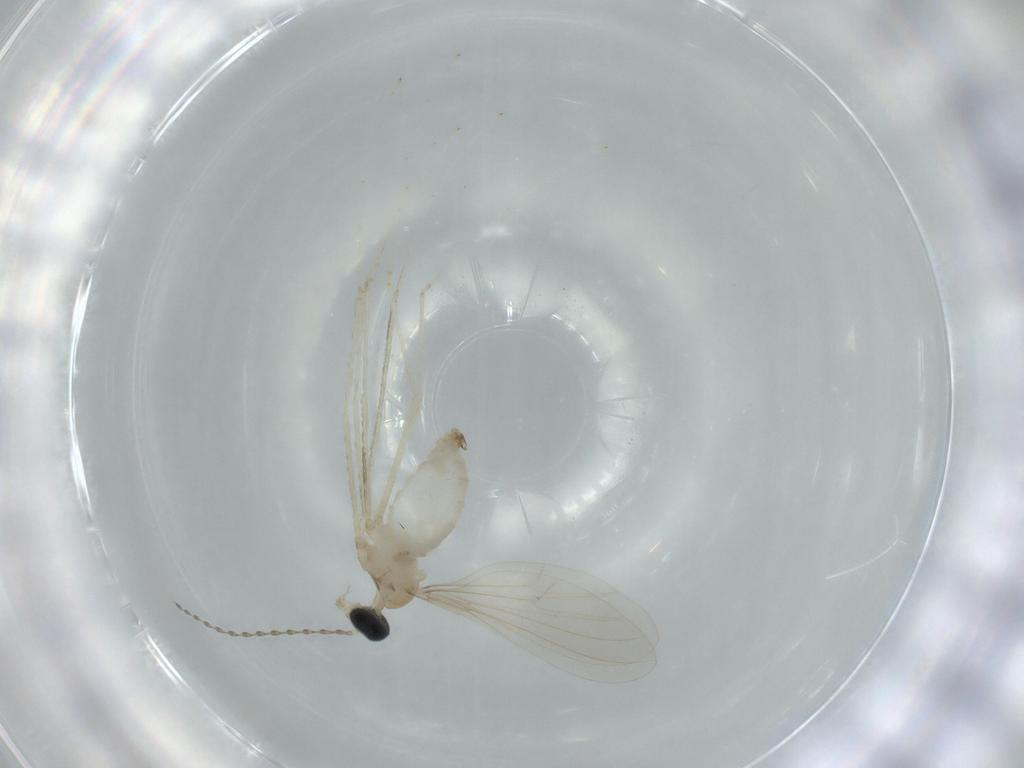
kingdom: Animalia
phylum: Arthropoda
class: Insecta
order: Diptera
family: Cecidomyiidae
